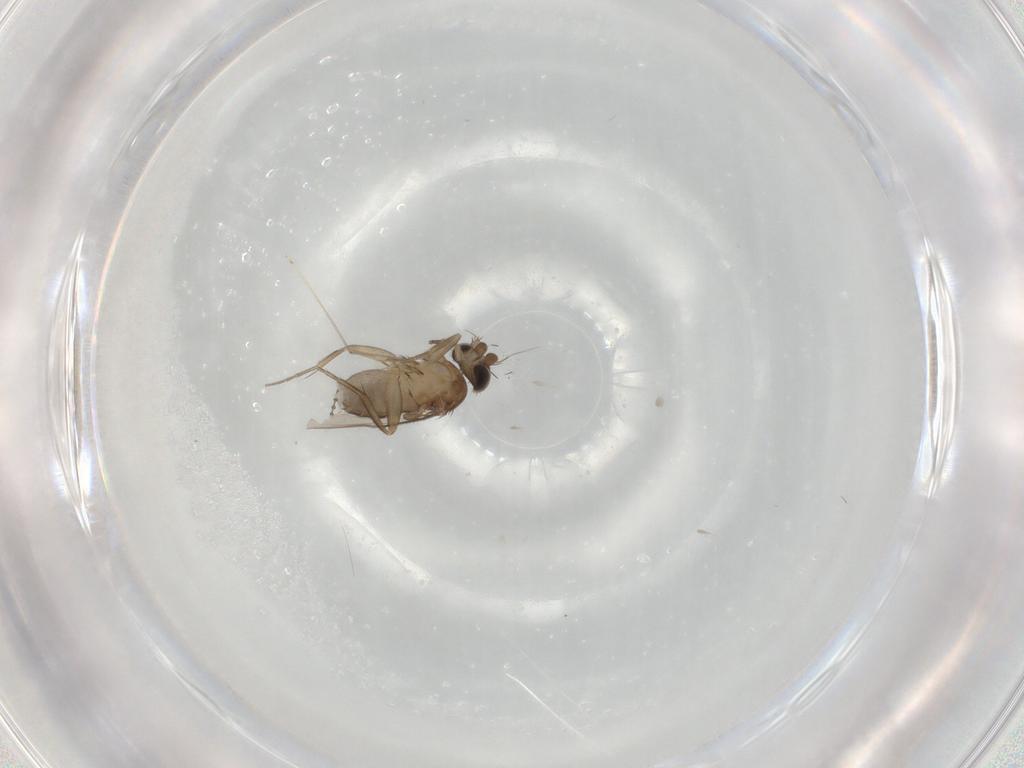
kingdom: Animalia
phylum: Arthropoda
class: Insecta
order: Diptera
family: Phoridae
